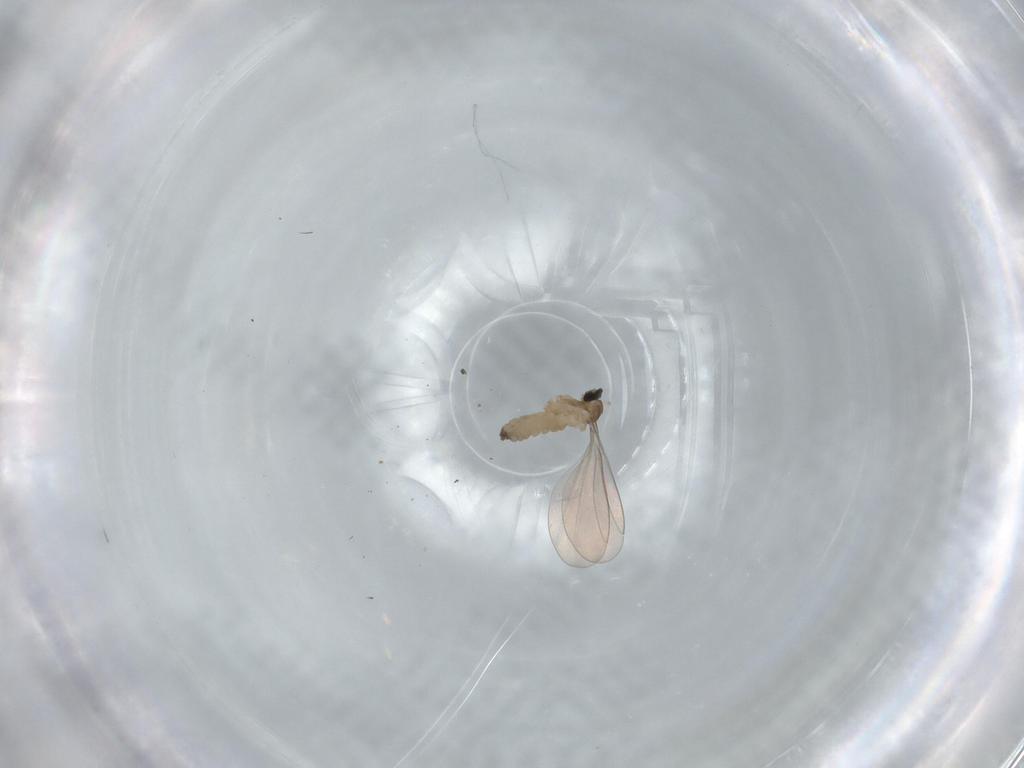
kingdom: Animalia
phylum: Arthropoda
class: Insecta
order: Diptera
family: Cecidomyiidae
